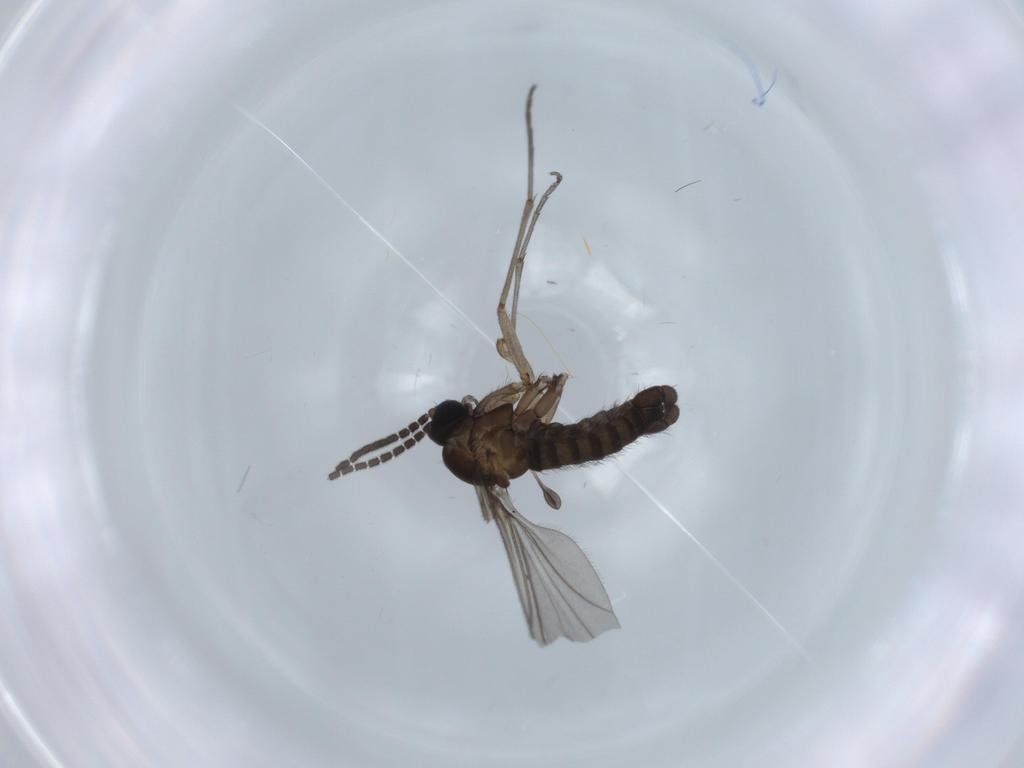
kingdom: Animalia
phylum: Arthropoda
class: Insecta
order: Diptera
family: Sciaridae
